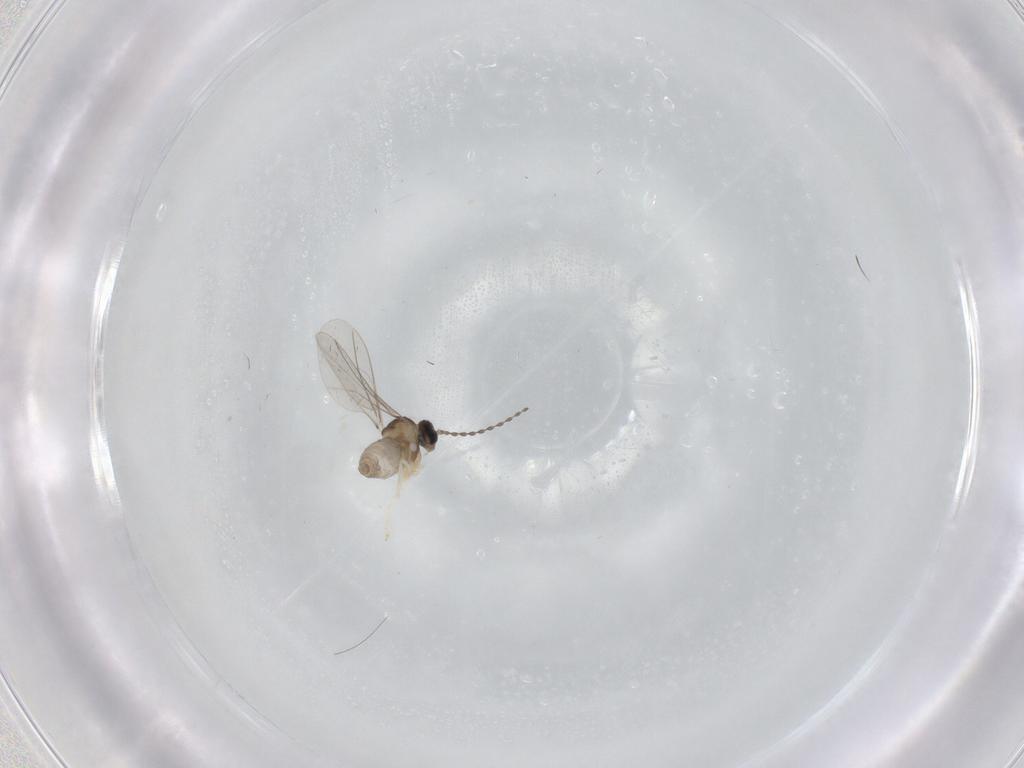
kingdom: Animalia
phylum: Arthropoda
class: Insecta
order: Diptera
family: Cecidomyiidae
